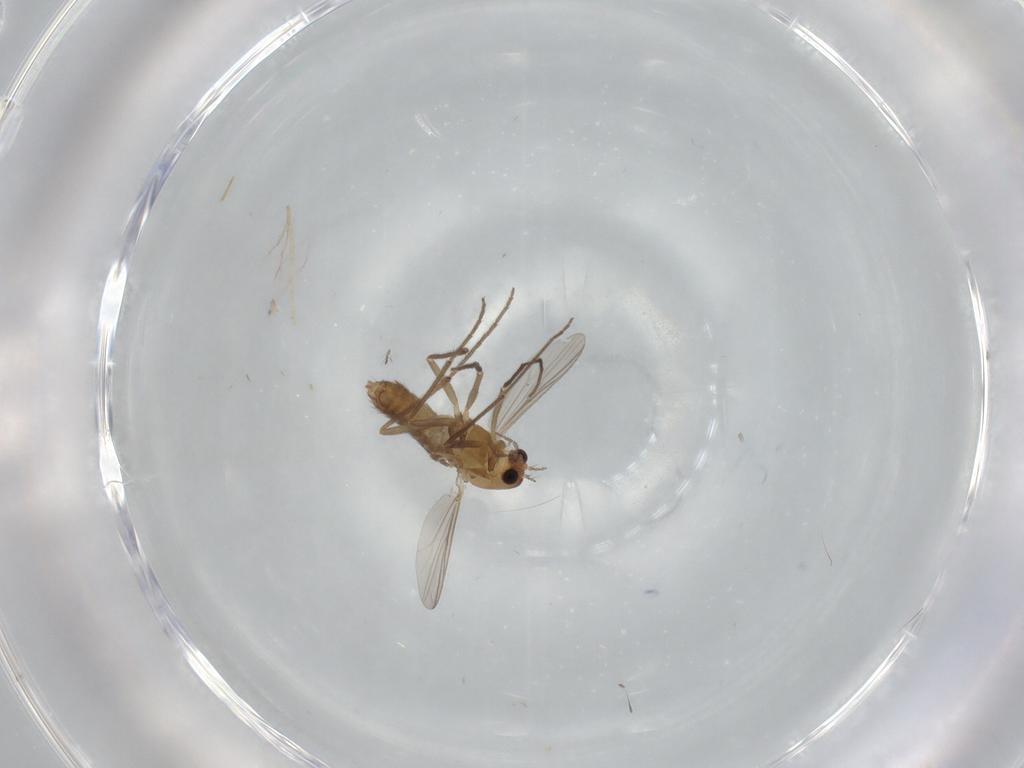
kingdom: Animalia
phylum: Arthropoda
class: Insecta
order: Diptera
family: Chironomidae
